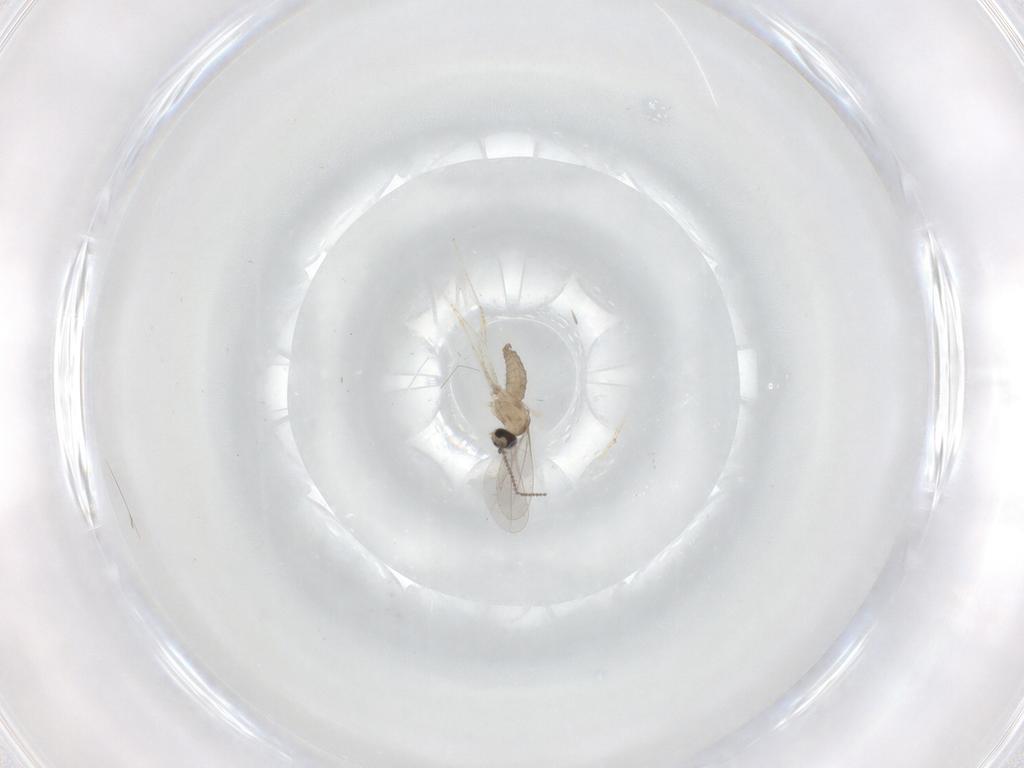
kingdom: Animalia
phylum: Arthropoda
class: Insecta
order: Diptera
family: Cecidomyiidae
